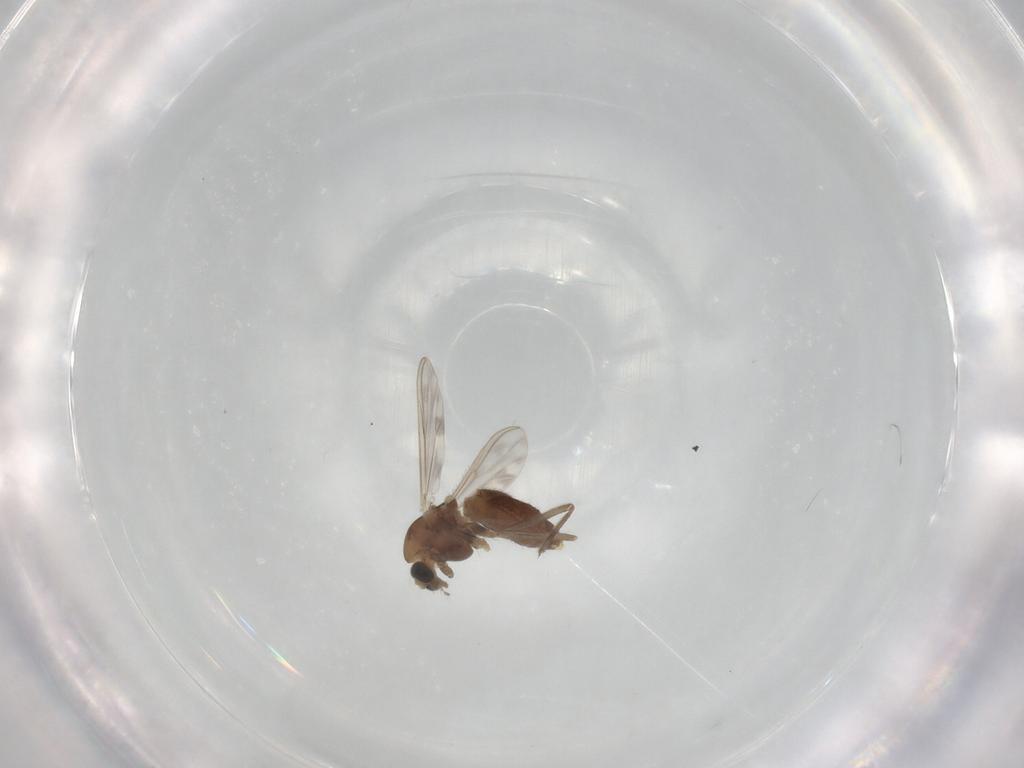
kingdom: Animalia
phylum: Arthropoda
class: Insecta
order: Diptera
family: Chironomidae
